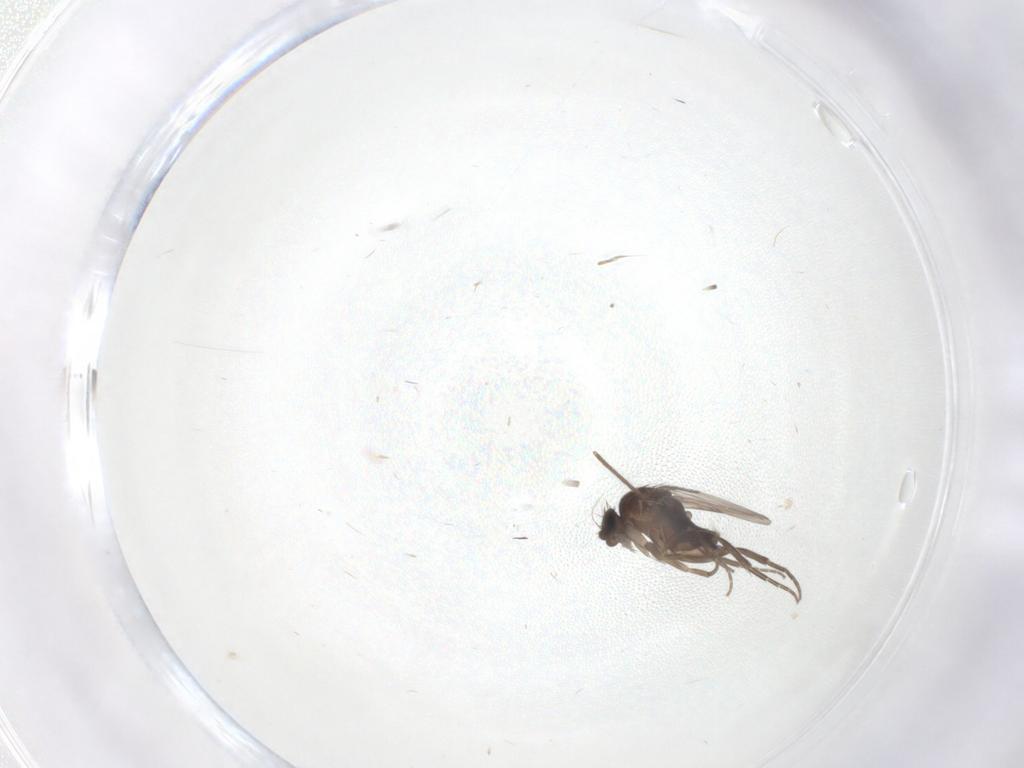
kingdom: Animalia
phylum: Arthropoda
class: Insecta
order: Diptera
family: Phoridae
